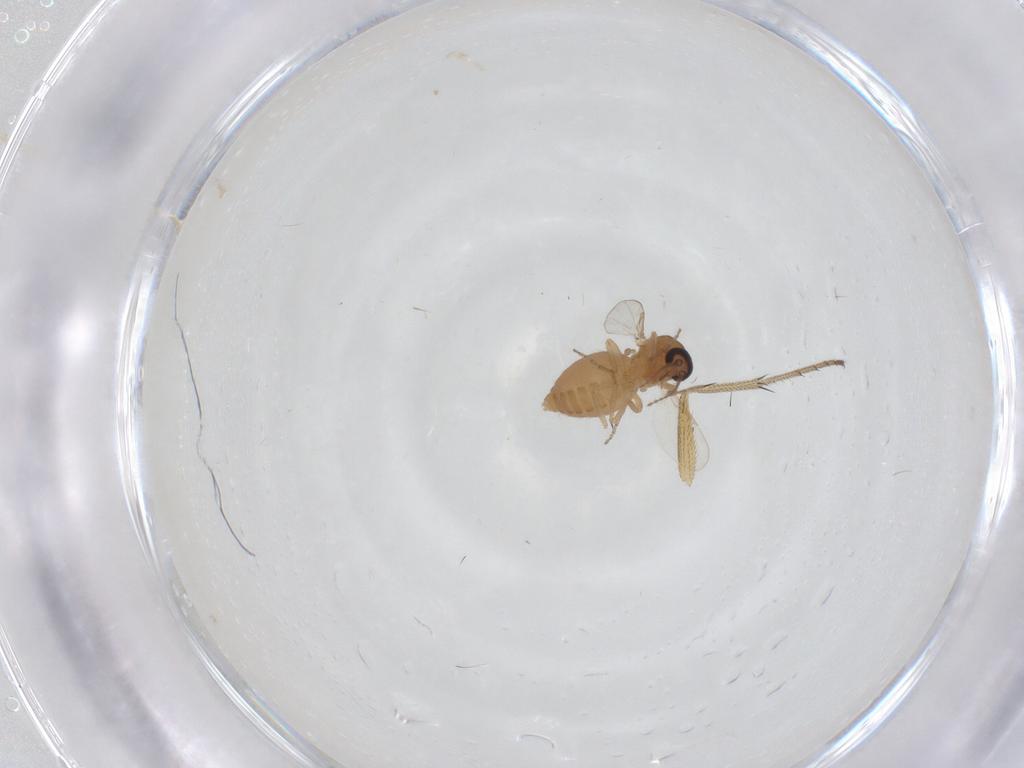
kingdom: Animalia
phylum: Arthropoda
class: Insecta
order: Diptera
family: Ceratopogonidae
